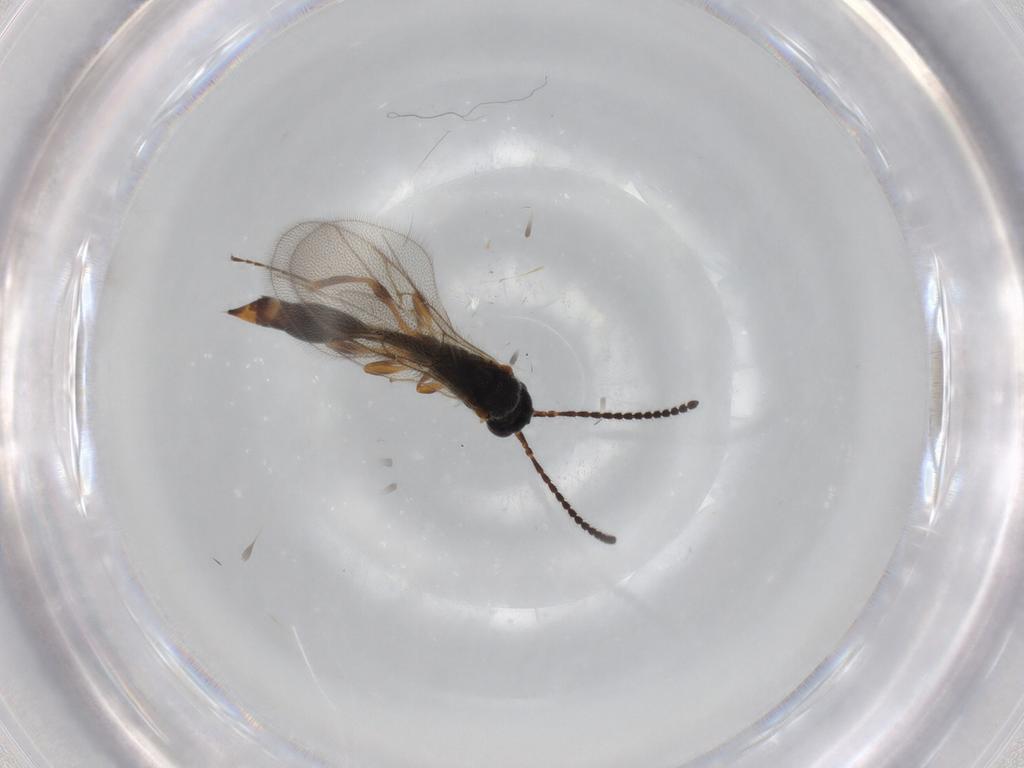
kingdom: Animalia
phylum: Arthropoda
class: Insecta
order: Hymenoptera
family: Diapriidae
